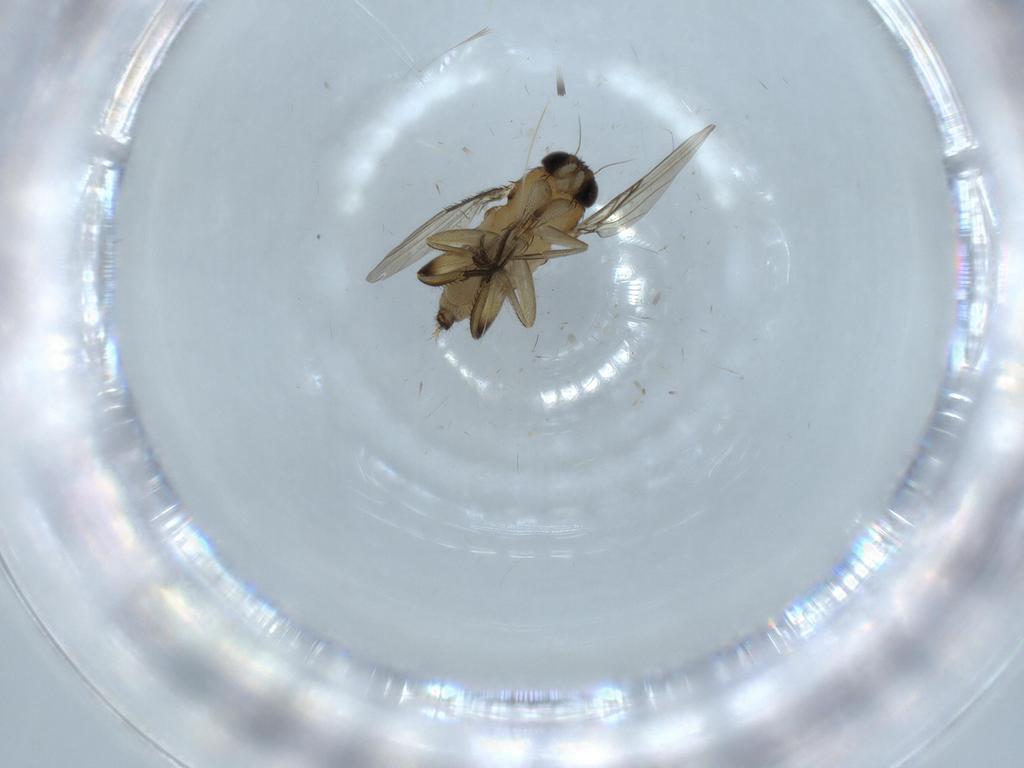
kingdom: Animalia
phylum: Arthropoda
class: Insecta
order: Diptera
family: Phoridae
